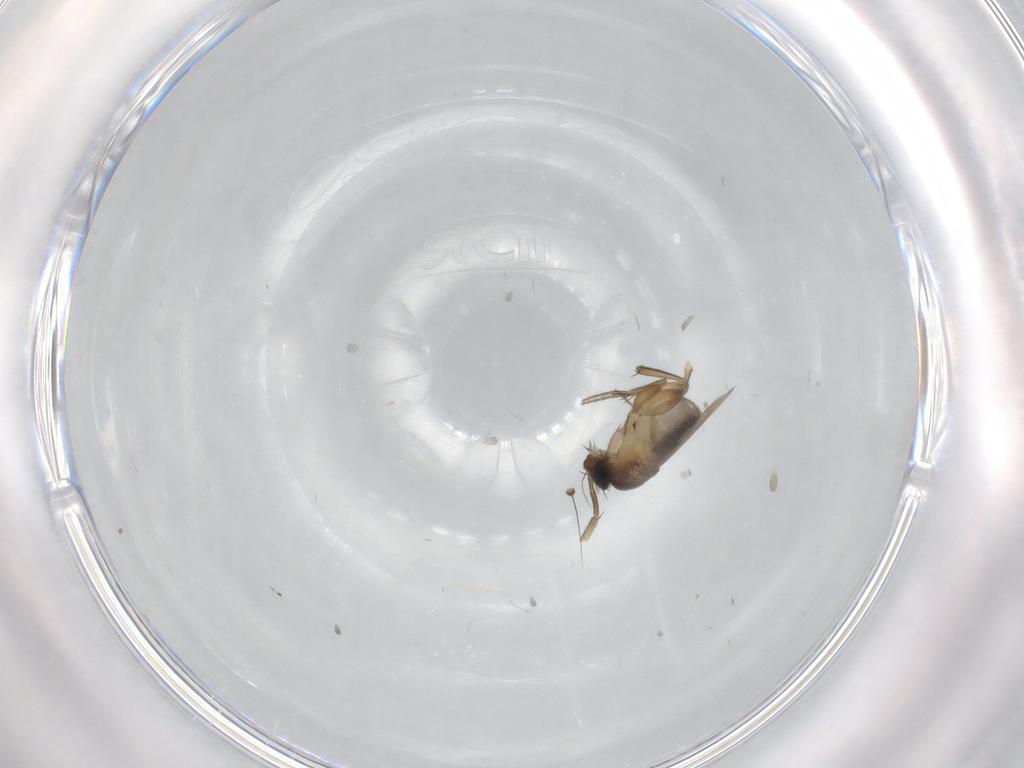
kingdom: Animalia
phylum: Arthropoda
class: Insecta
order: Diptera
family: Phoridae
